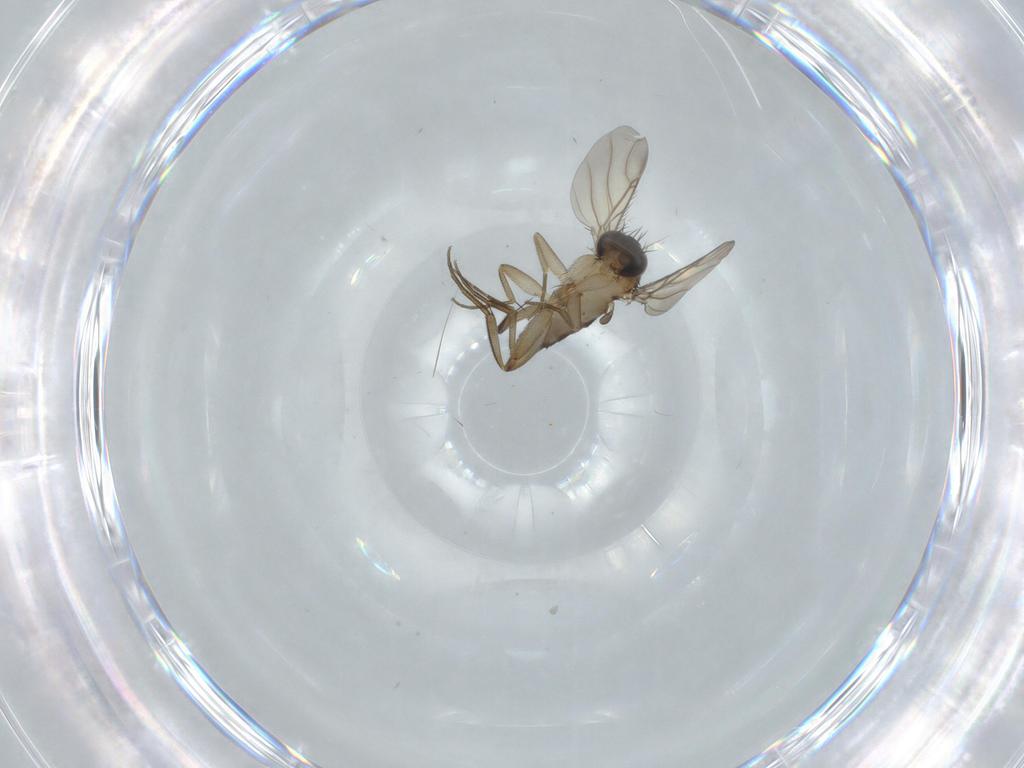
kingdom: Animalia
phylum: Arthropoda
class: Insecta
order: Diptera
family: Phoridae
